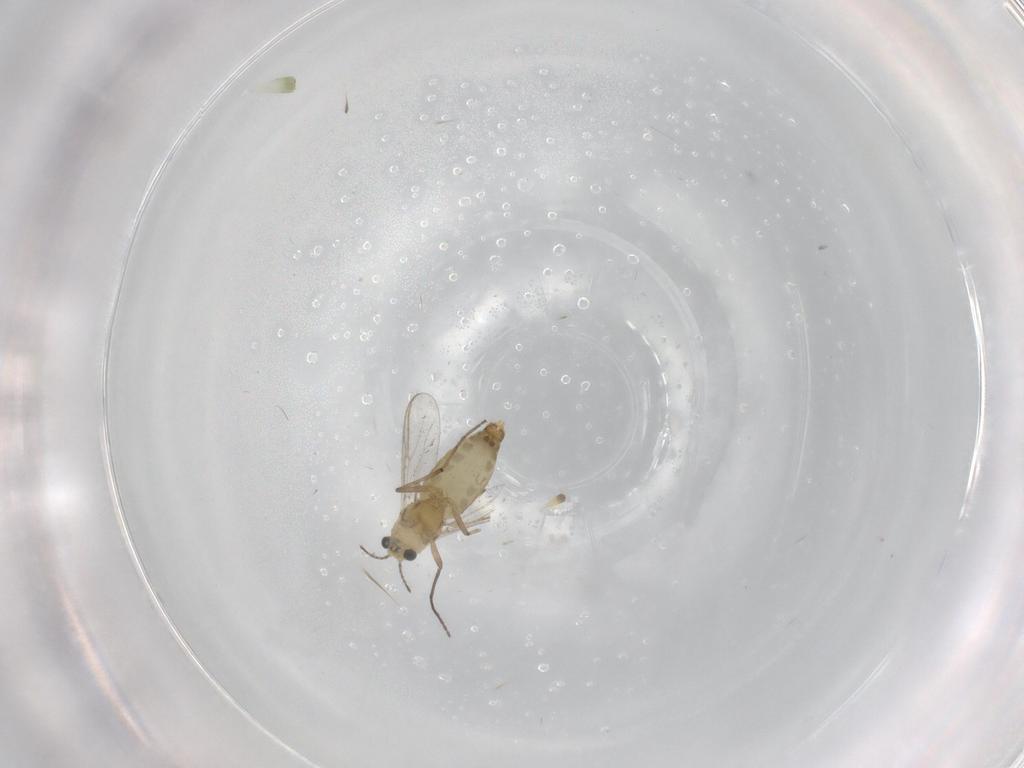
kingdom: Animalia
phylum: Arthropoda
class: Insecta
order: Diptera
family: Chironomidae
